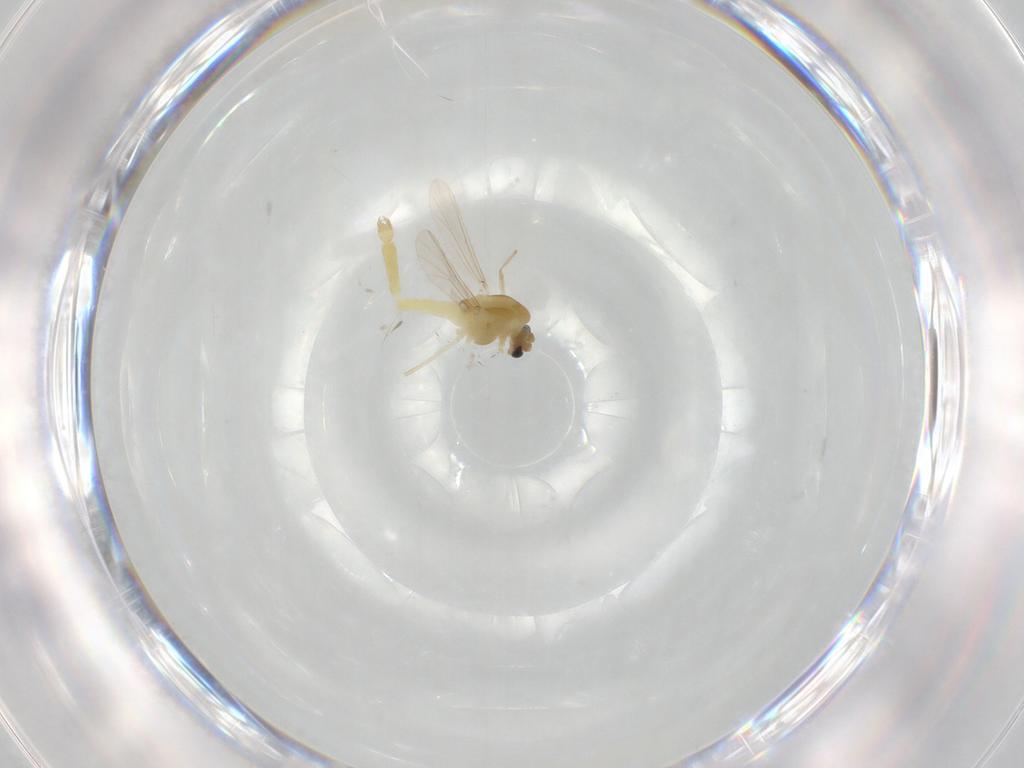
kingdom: Animalia
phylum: Arthropoda
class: Insecta
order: Diptera
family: Chironomidae
